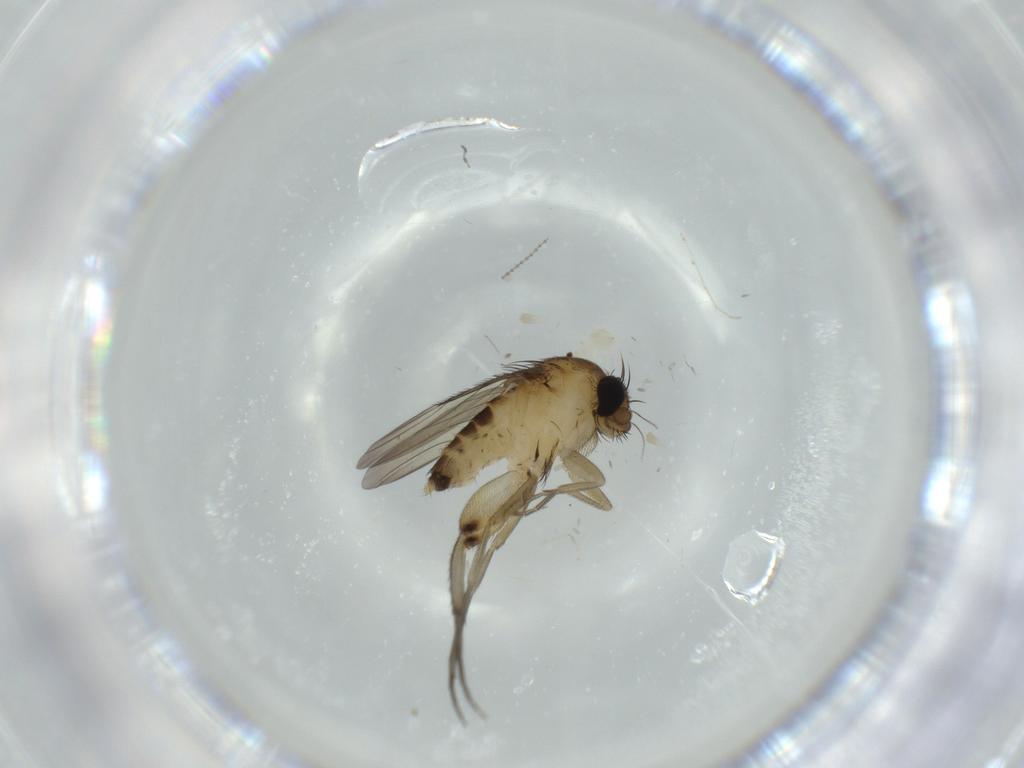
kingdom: Animalia
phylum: Arthropoda
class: Insecta
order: Diptera
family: Phoridae
